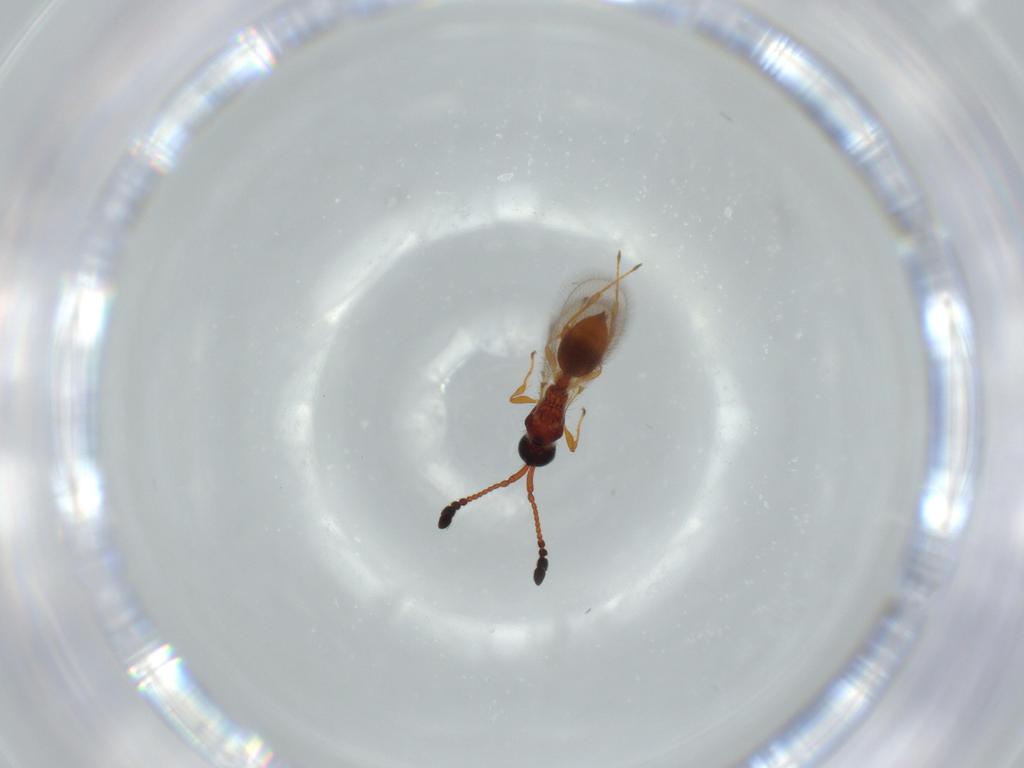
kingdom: Animalia
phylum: Arthropoda
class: Insecta
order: Hymenoptera
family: Diapriidae
